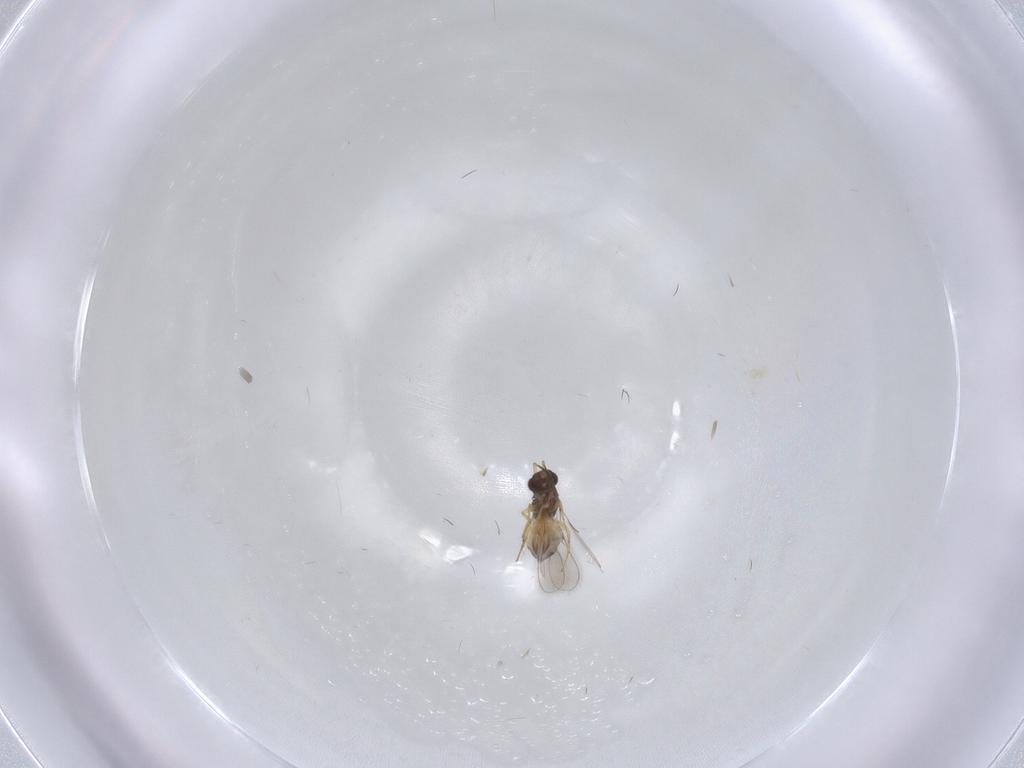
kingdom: Animalia
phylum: Arthropoda
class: Insecta
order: Hymenoptera
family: Mymaridae
